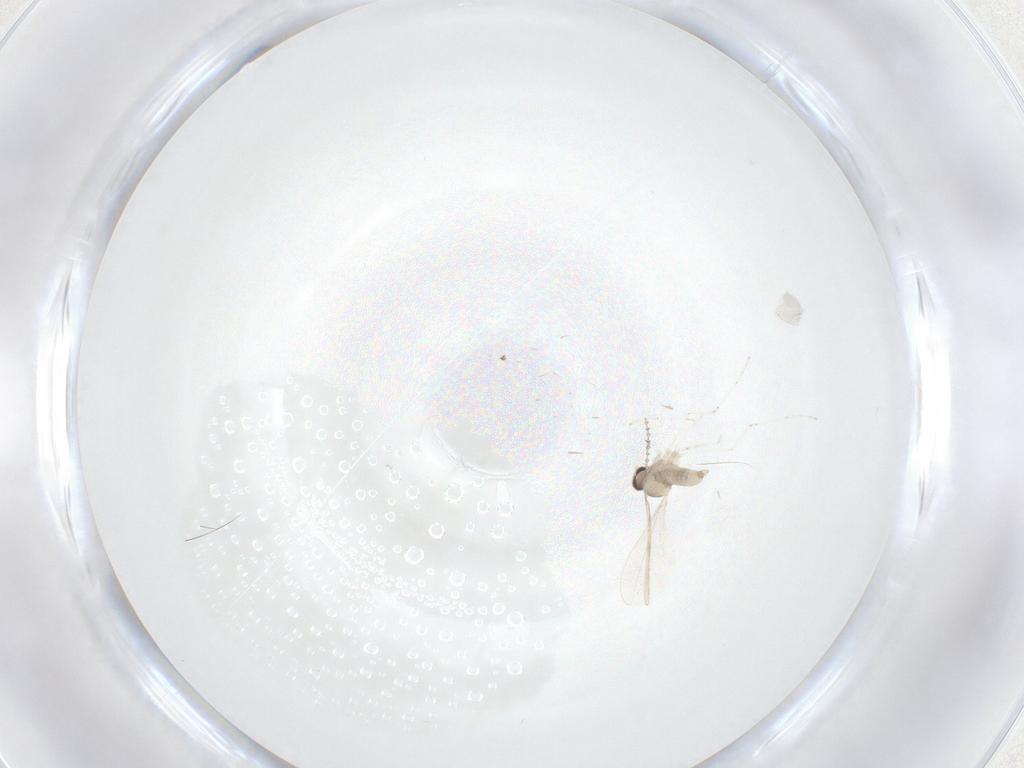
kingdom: Animalia
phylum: Arthropoda
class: Insecta
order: Diptera
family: Cecidomyiidae
